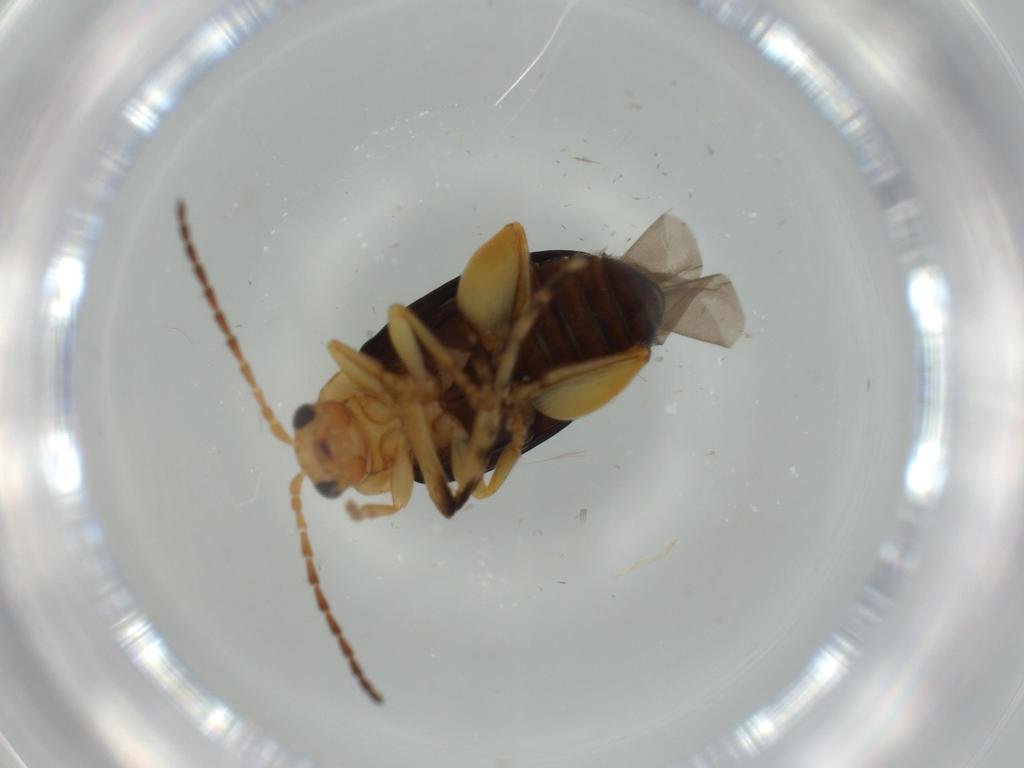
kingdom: Animalia
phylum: Arthropoda
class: Insecta
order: Coleoptera
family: Chrysomelidae
